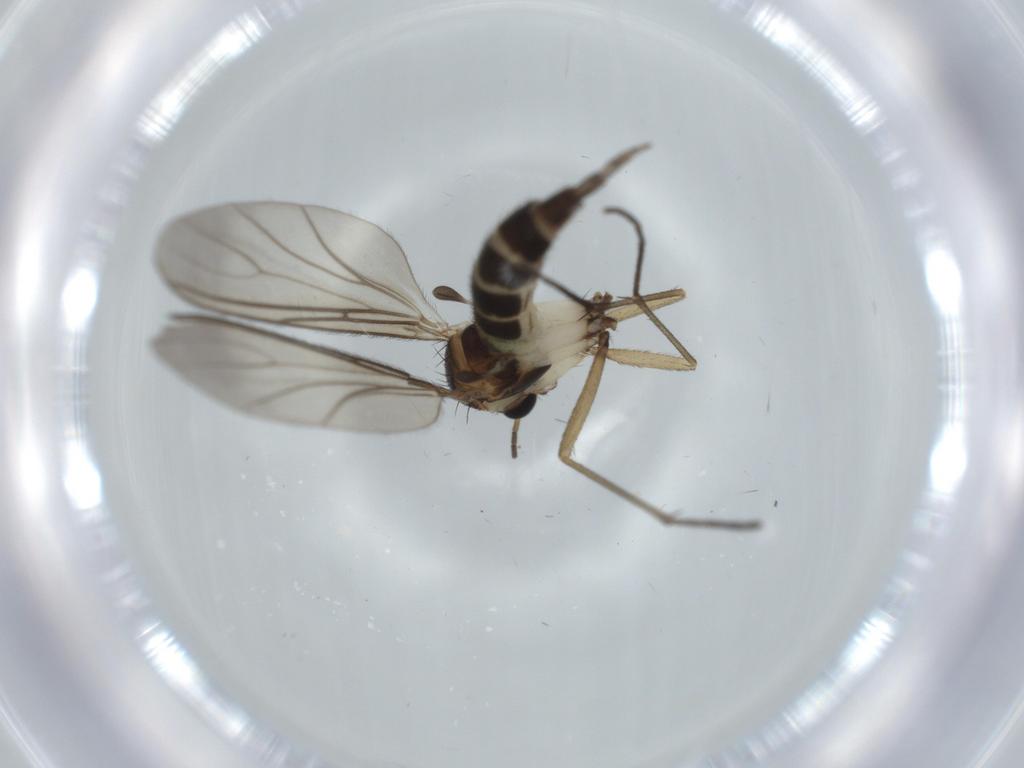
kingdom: Animalia
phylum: Arthropoda
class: Insecta
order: Diptera
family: Sciaridae
